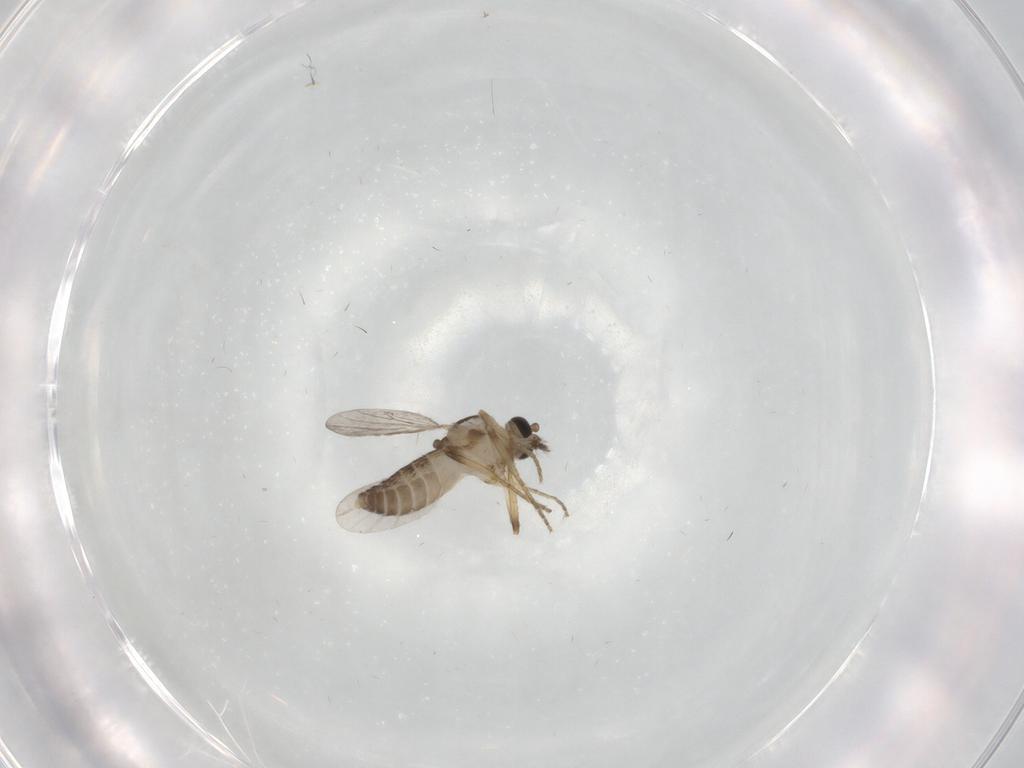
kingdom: Animalia
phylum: Arthropoda
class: Insecta
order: Diptera
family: Ceratopogonidae
